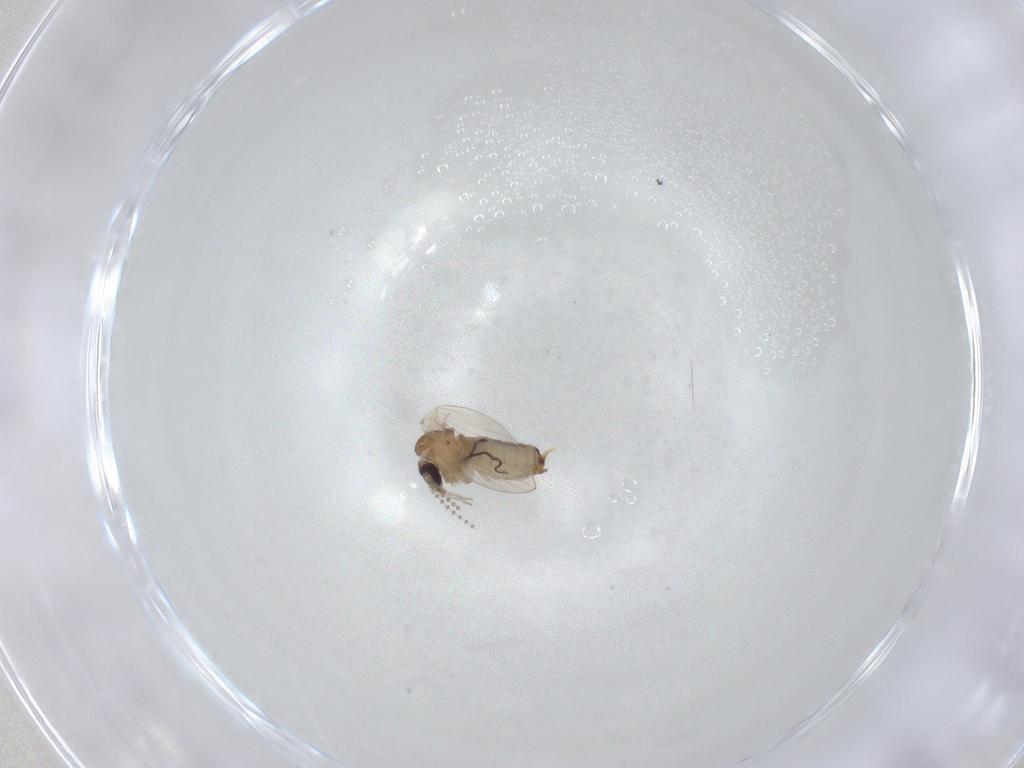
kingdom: Animalia
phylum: Arthropoda
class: Insecta
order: Diptera
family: Psychodidae
